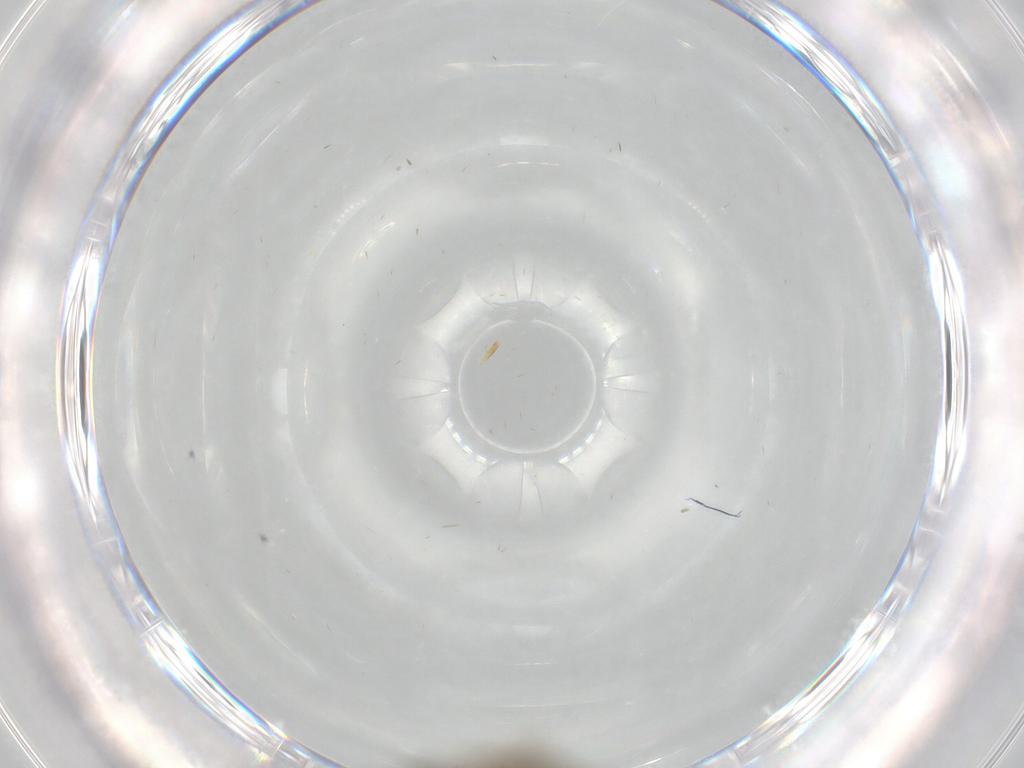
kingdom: Animalia
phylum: Arthropoda
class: Insecta
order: Diptera
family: Sciaridae
